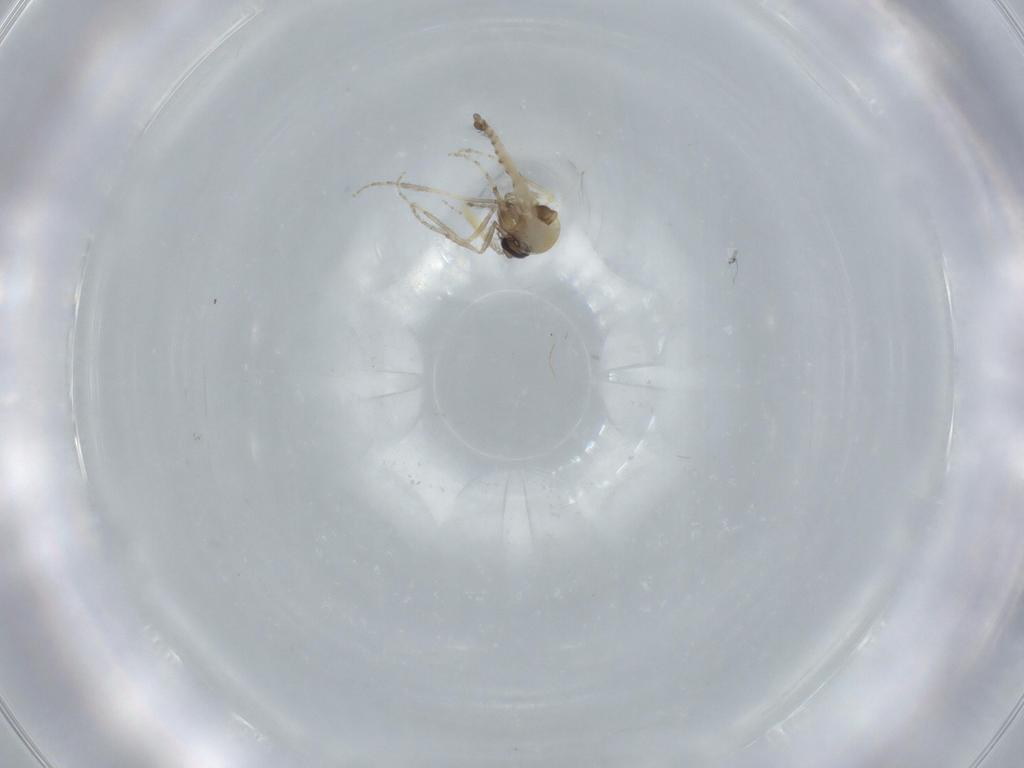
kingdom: Animalia
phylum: Arthropoda
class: Insecta
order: Diptera
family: Ceratopogonidae
